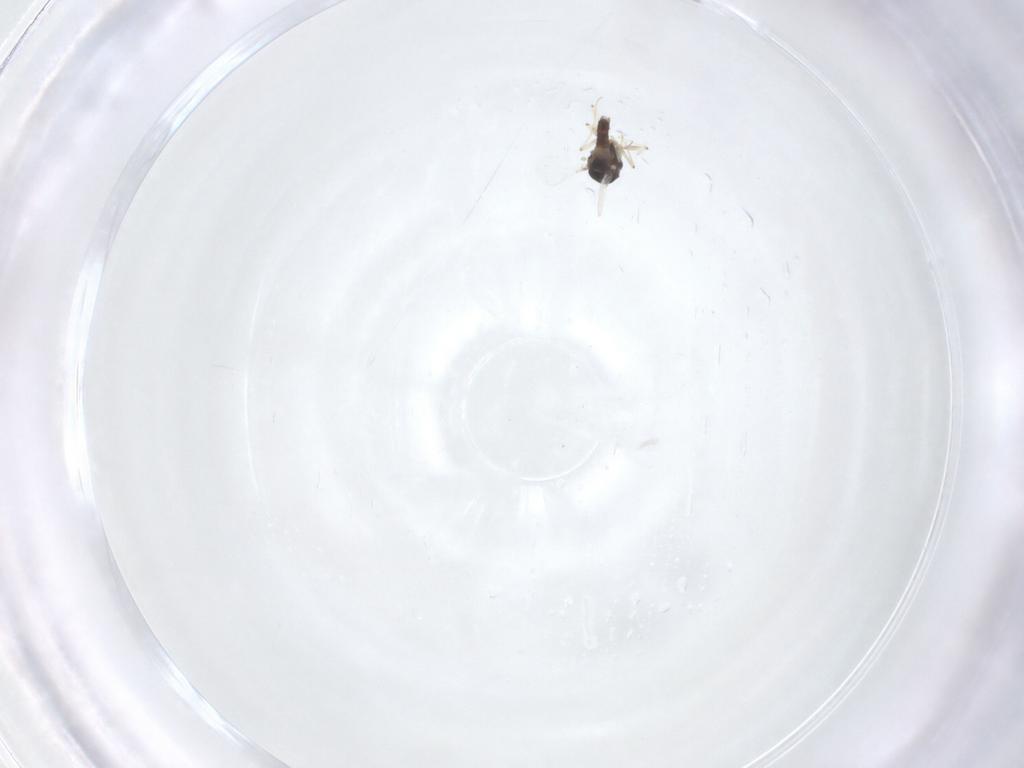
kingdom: Animalia
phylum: Arthropoda
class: Insecta
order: Diptera
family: Chironomidae
